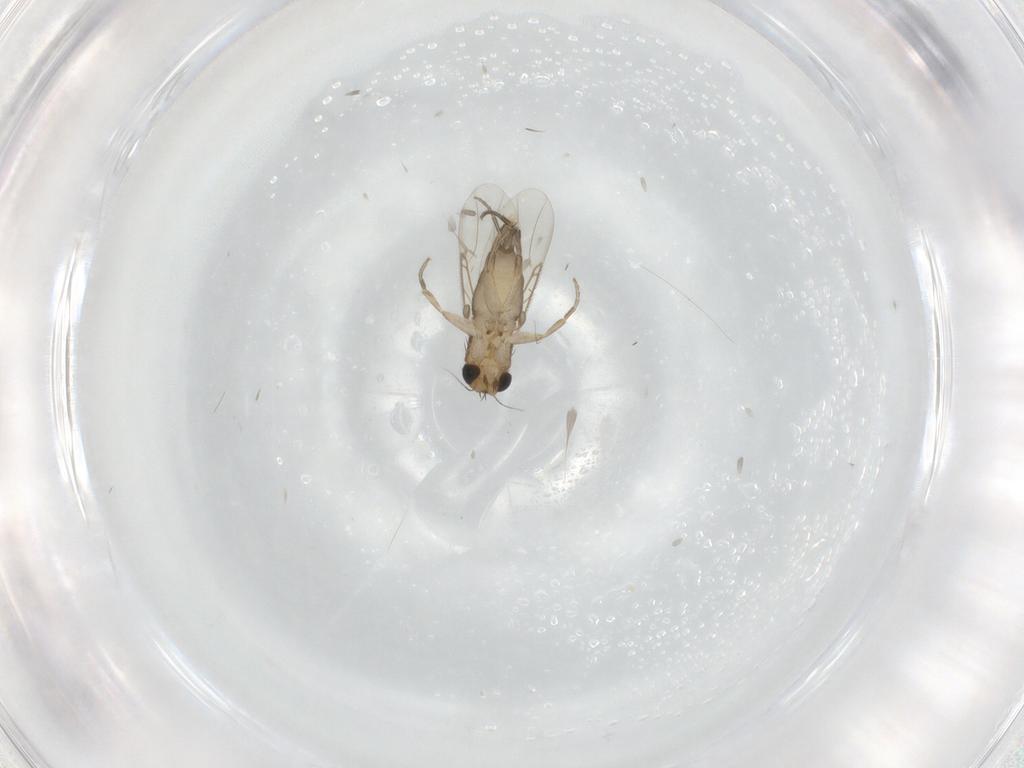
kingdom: Animalia
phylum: Arthropoda
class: Insecta
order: Diptera
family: Phoridae
